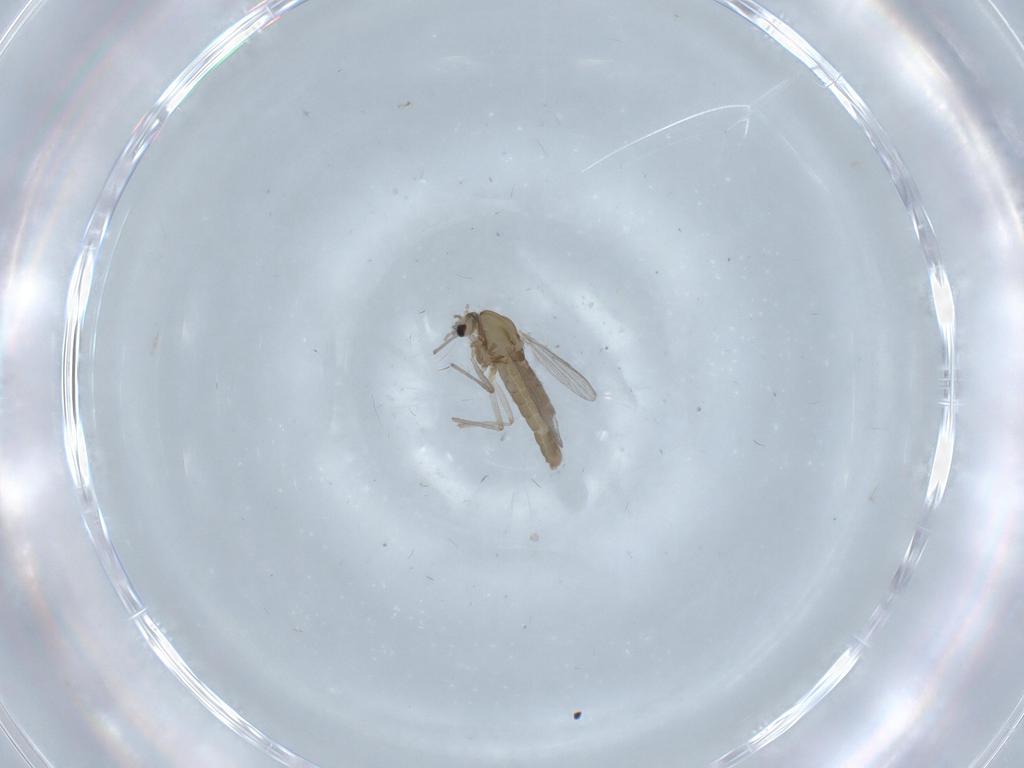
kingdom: Animalia
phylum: Arthropoda
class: Insecta
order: Diptera
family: Chironomidae
